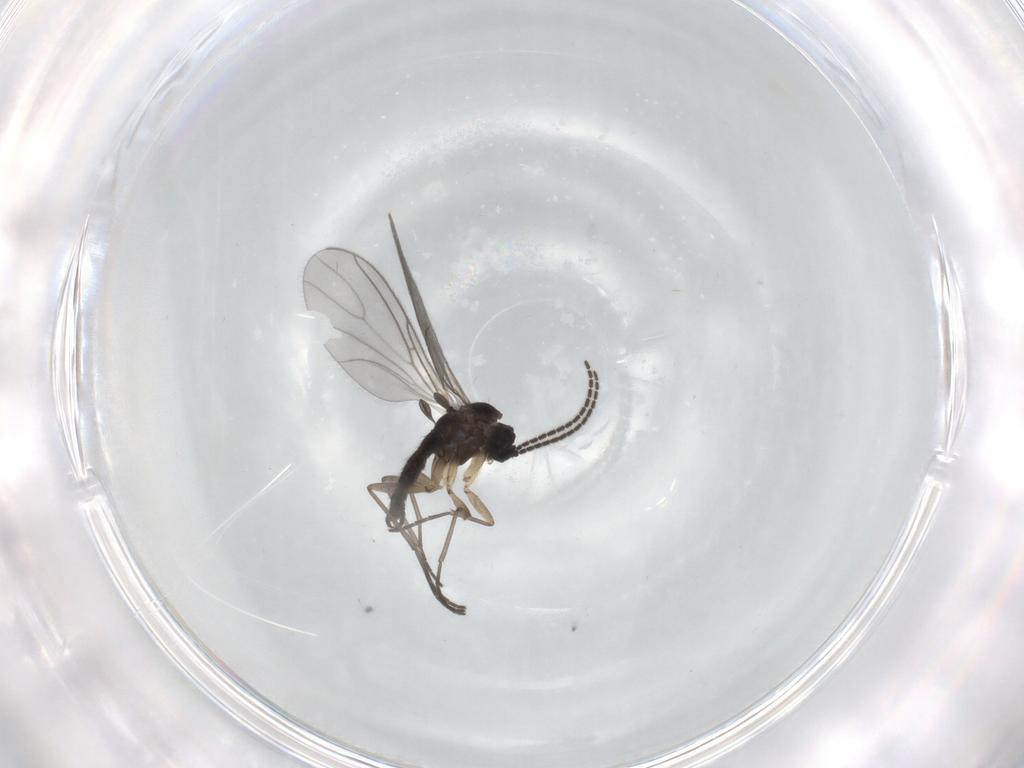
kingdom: Animalia
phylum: Arthropoda
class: Insecta
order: Diptera
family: Sciaridae
